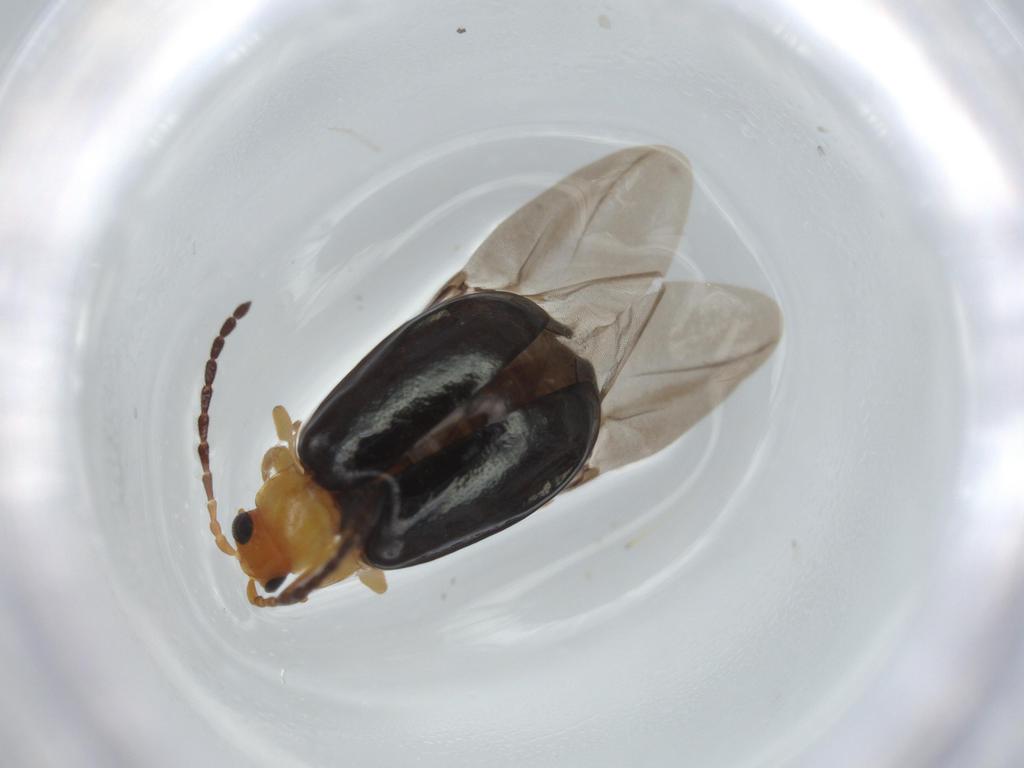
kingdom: Animalia
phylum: Arthropoda
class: Insecta
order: Coleoptera
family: Chrysomelidae
